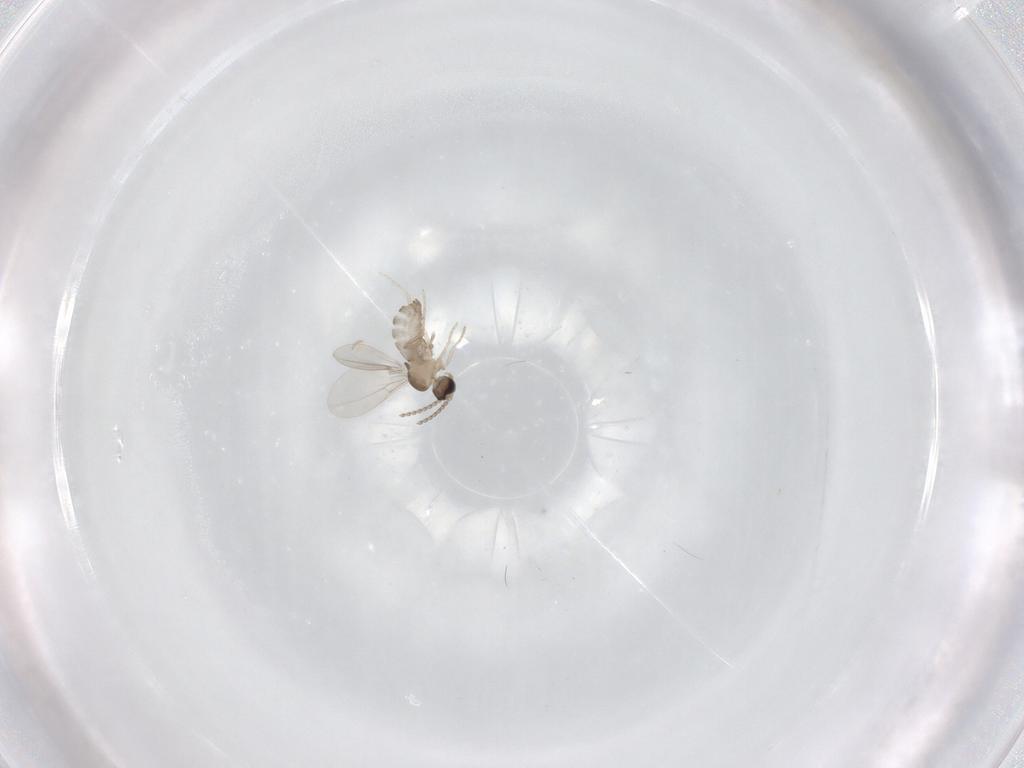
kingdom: Animalia
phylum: Arthropoda
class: Insecta
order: Diptera
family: Cecidomyiidae
